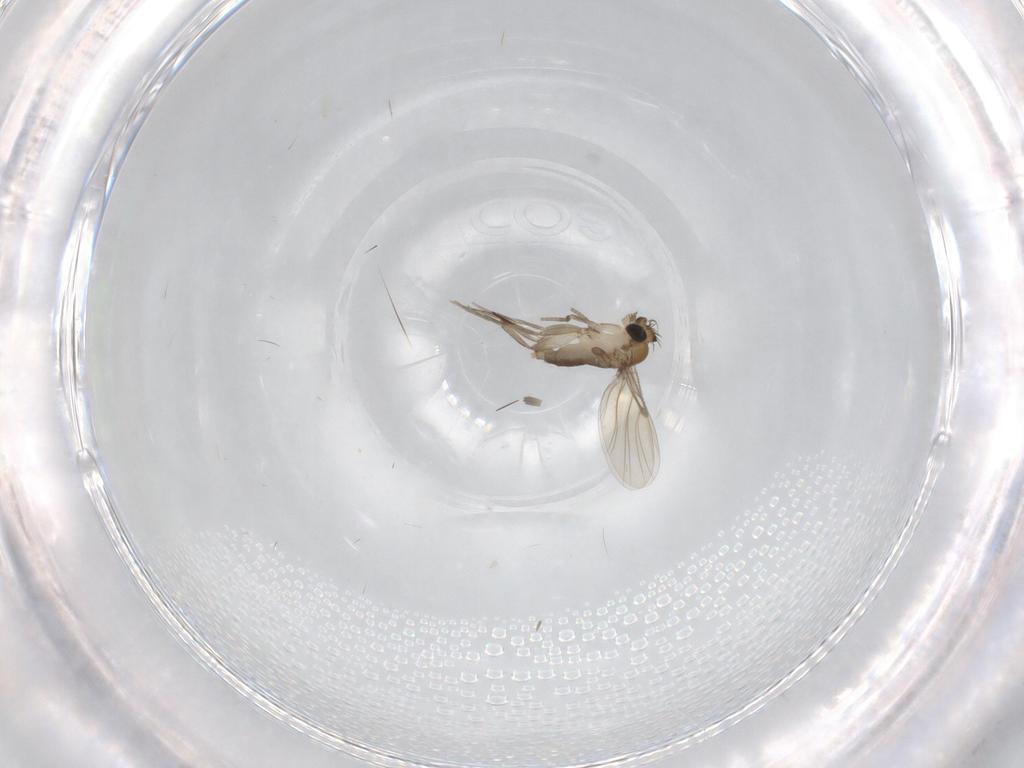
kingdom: Animalia
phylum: Arthropoda
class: Insecta
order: Diptera
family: Phoridae
